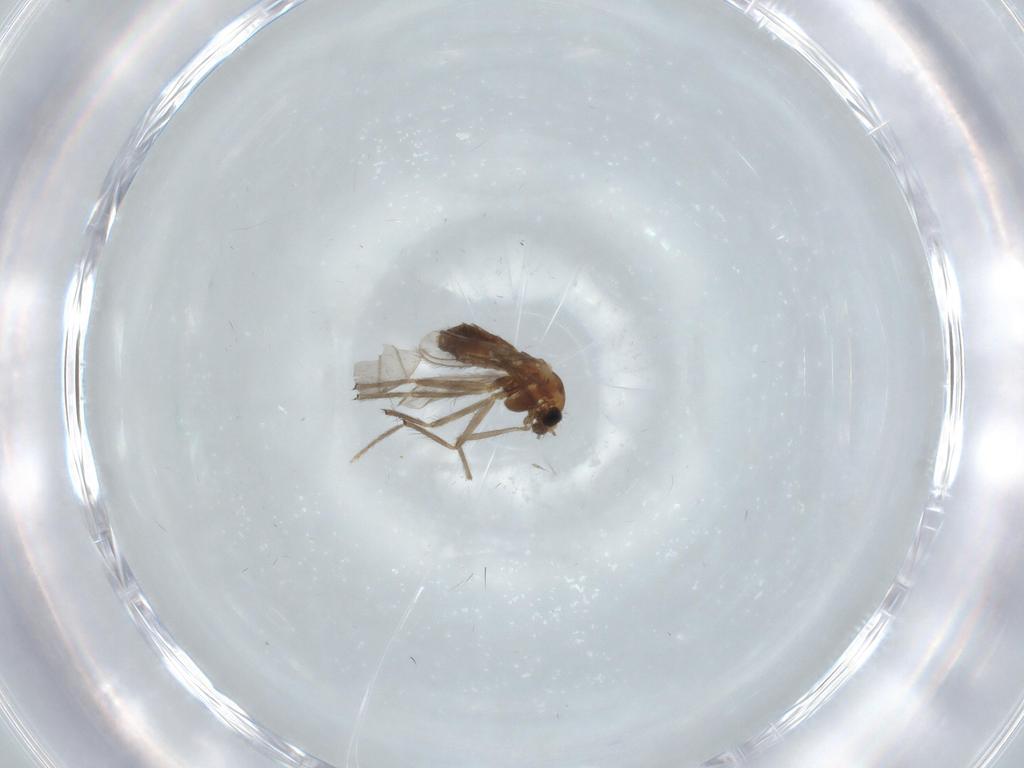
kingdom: Animalia
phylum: Arthropoda
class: Insecta
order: Diptera
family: Chironomidae
